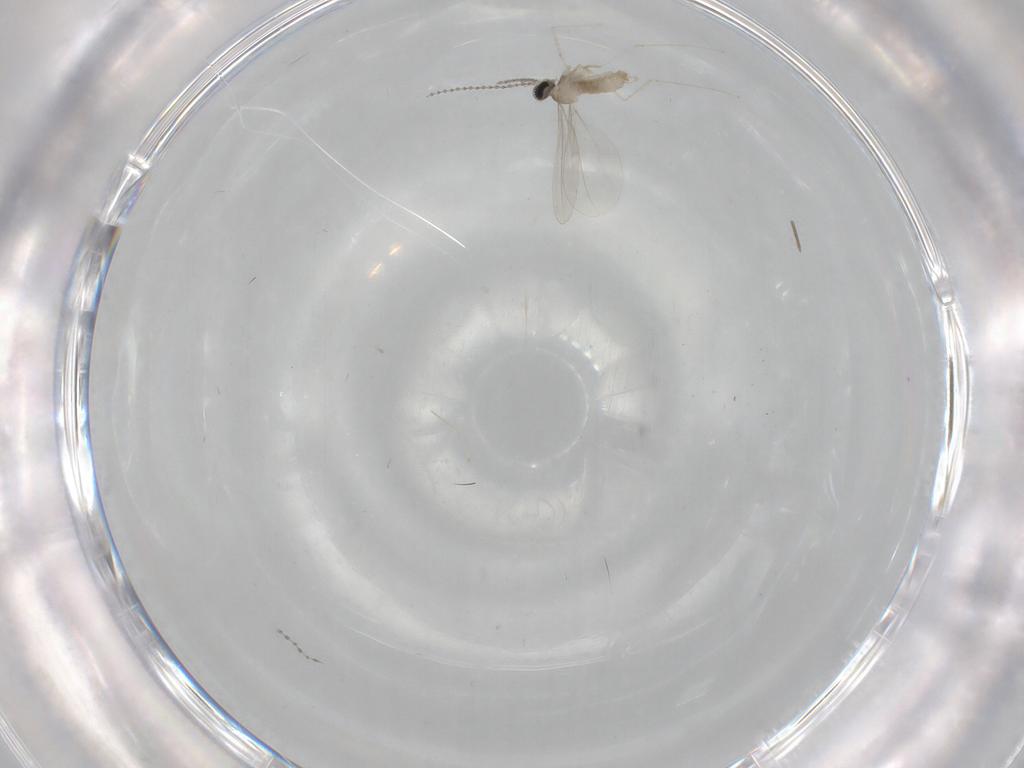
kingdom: Animalia
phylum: Arthropoda
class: Insecta
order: Diptera
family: Cecidomyiidae
